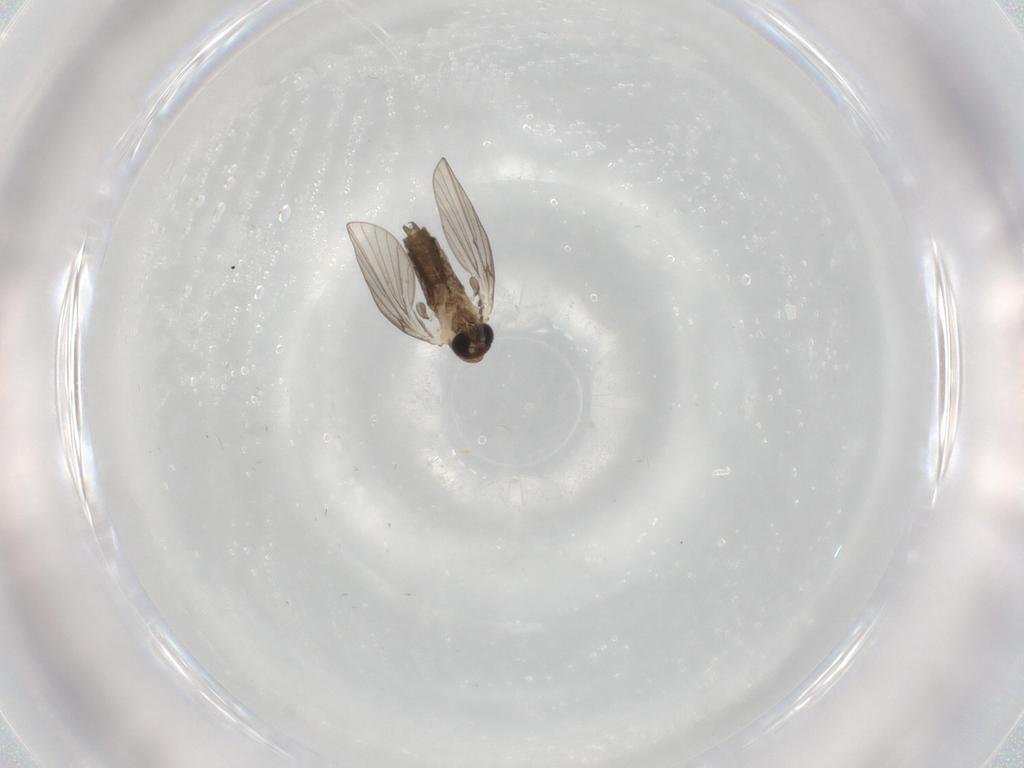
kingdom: Animalia
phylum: Arthropoda
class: Insecta
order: Diptera
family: Psychodidae
